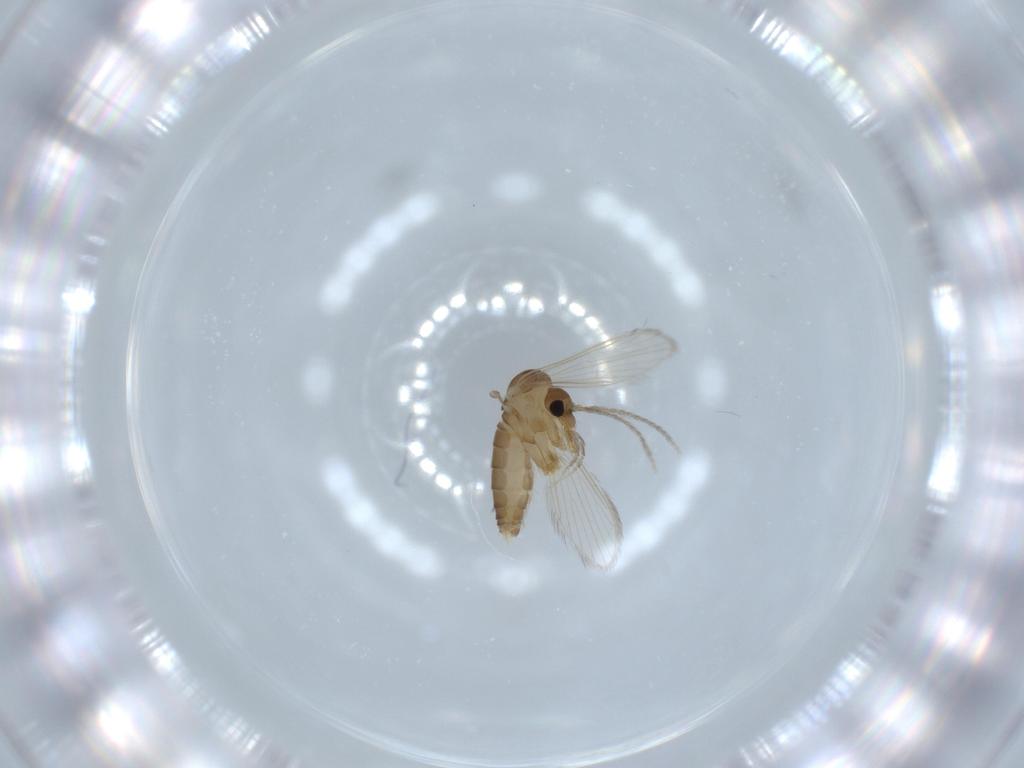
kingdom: Animalia
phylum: Arthropoda
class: Insecta
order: Diptera
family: Psychodidae
